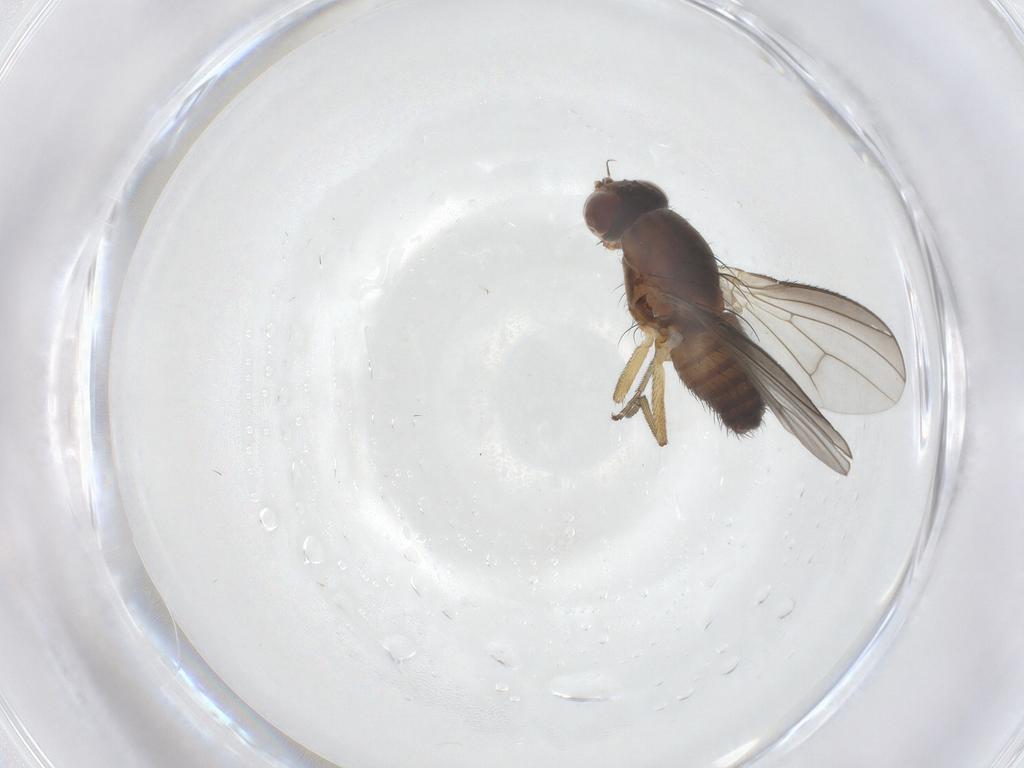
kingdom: Animalia
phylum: Arthropoda
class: Insecta
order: Diptera
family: Heleomyzidae
